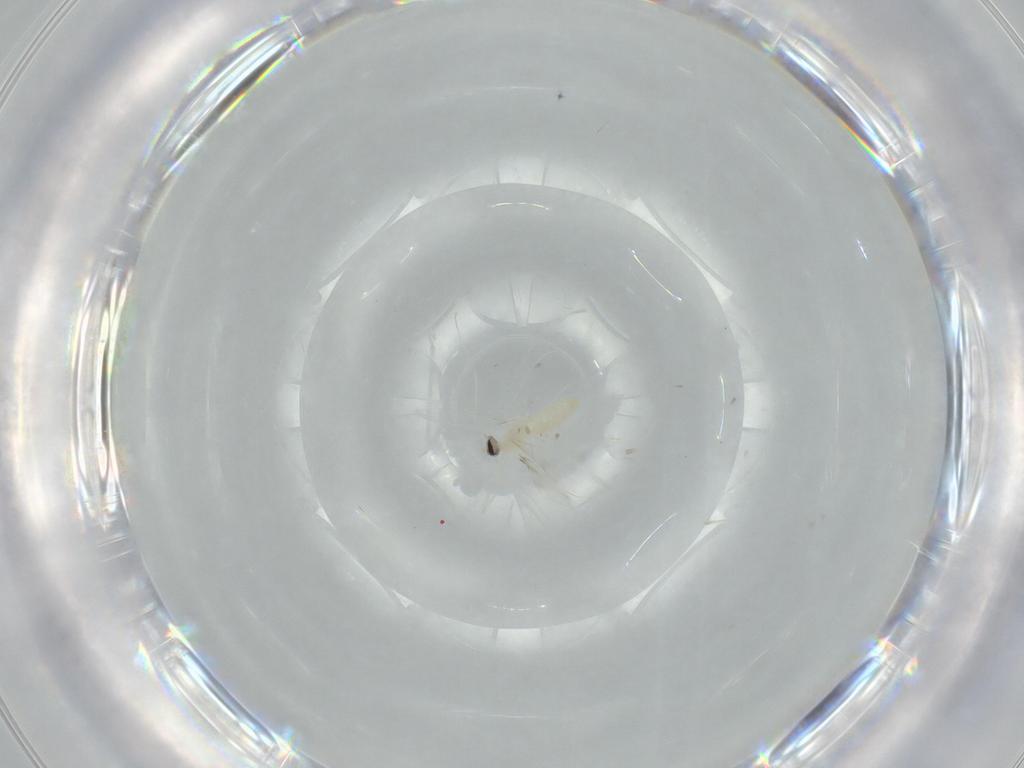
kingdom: Animalia
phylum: Arthropoda
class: Insecta
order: Diptera
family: Cecidomyiidae
